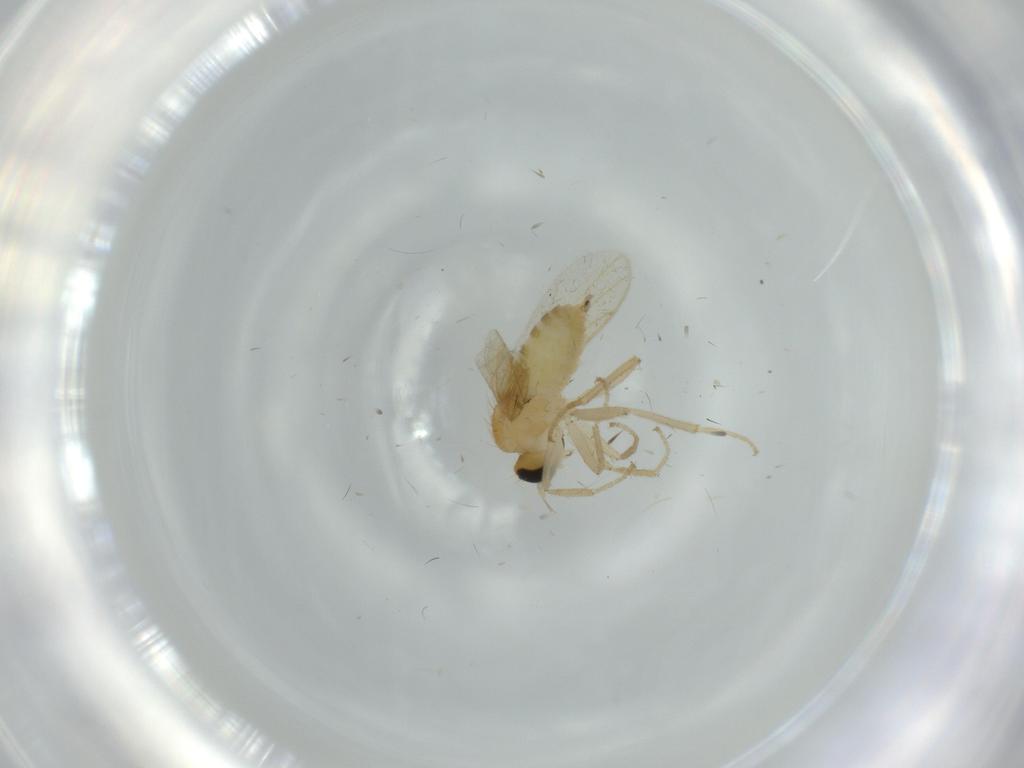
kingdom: Animalia
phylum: Arthropoda
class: Insecta
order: Diptera
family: Hybotidae
